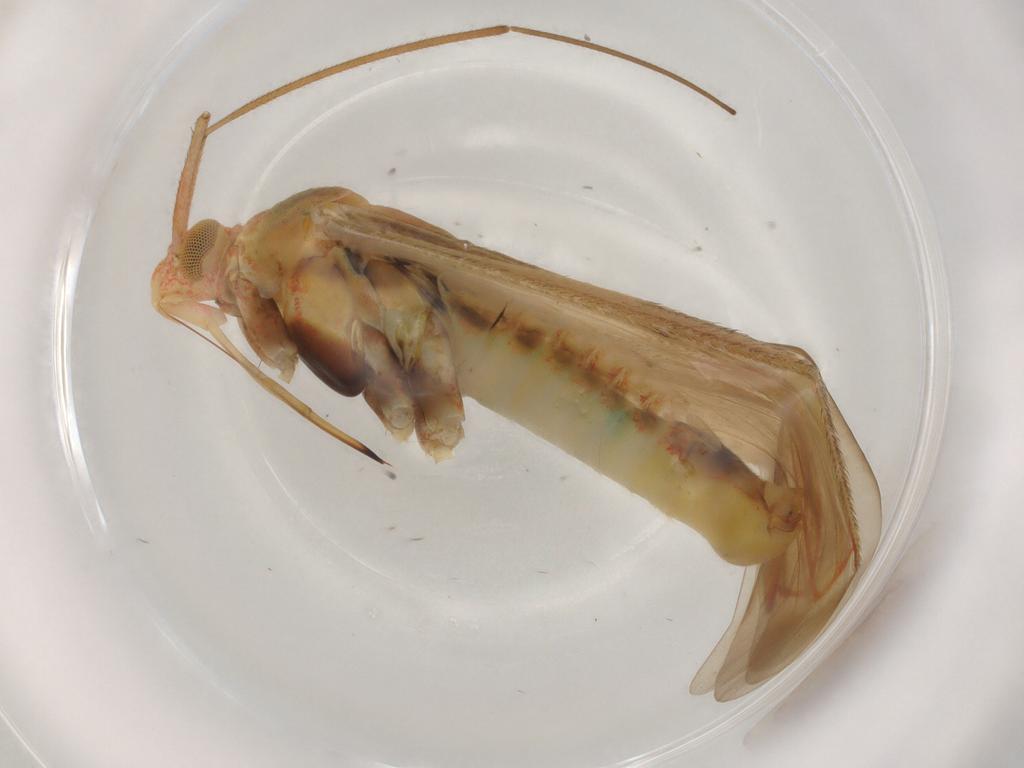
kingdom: Animalia
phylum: Arthropoda
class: Insecta
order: Hemiptera
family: Miridae
